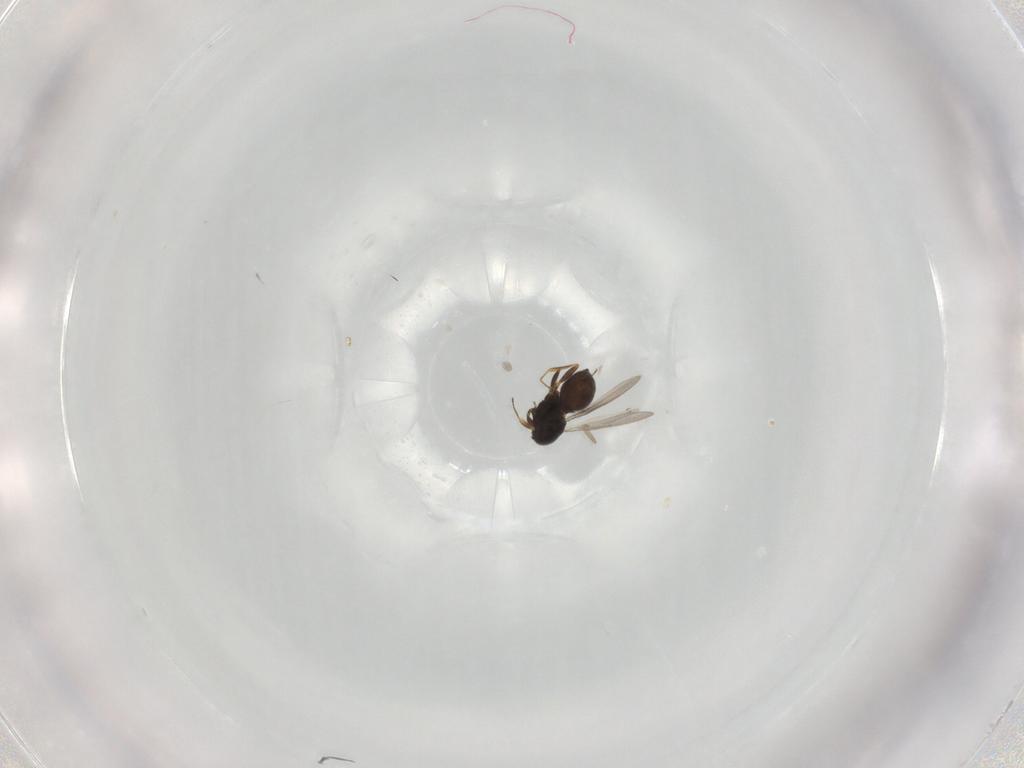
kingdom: Animalia
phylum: Arthropoda
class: Insecta
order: Hymenoptera
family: Scelionidae
